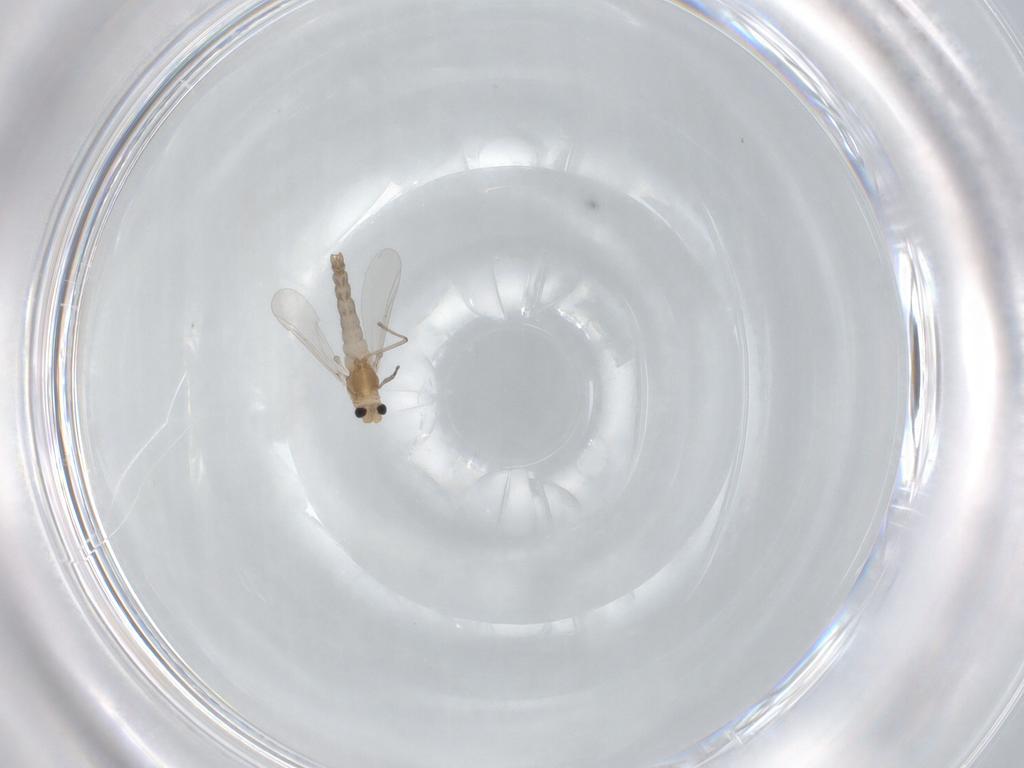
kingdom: Animalia
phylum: Arthropoda
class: Insecta
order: Diptera
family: Chironomidae
